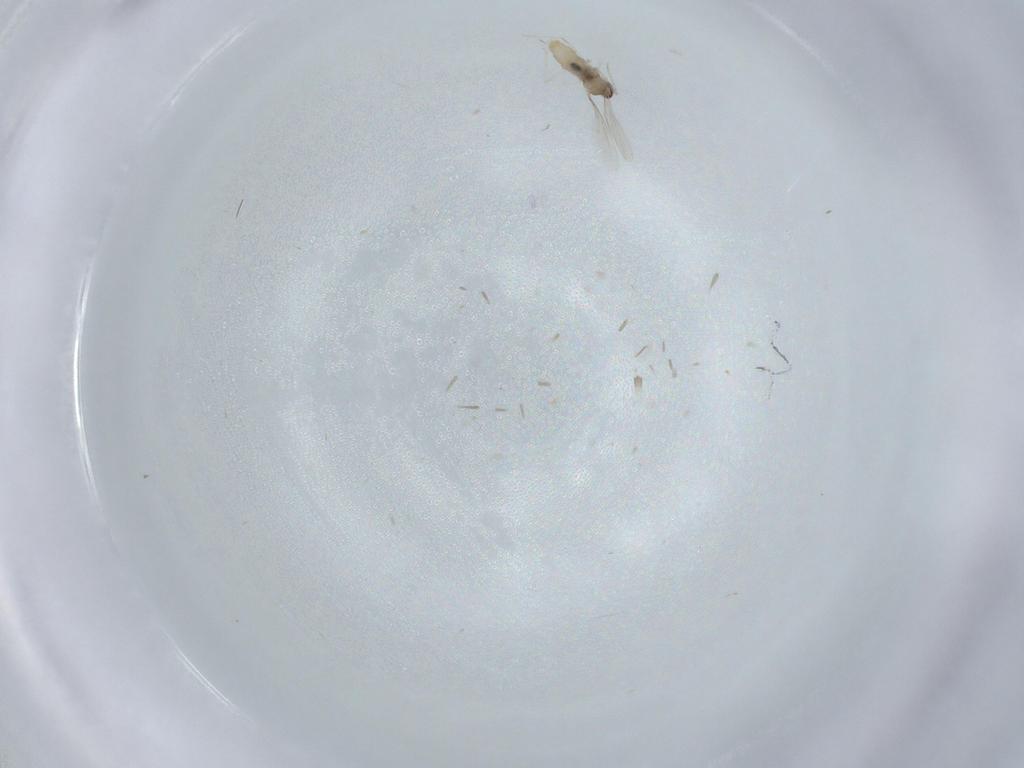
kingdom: Animalia
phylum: Arthropoda
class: Insecta
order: Diptera
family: Cecidomyiidae
